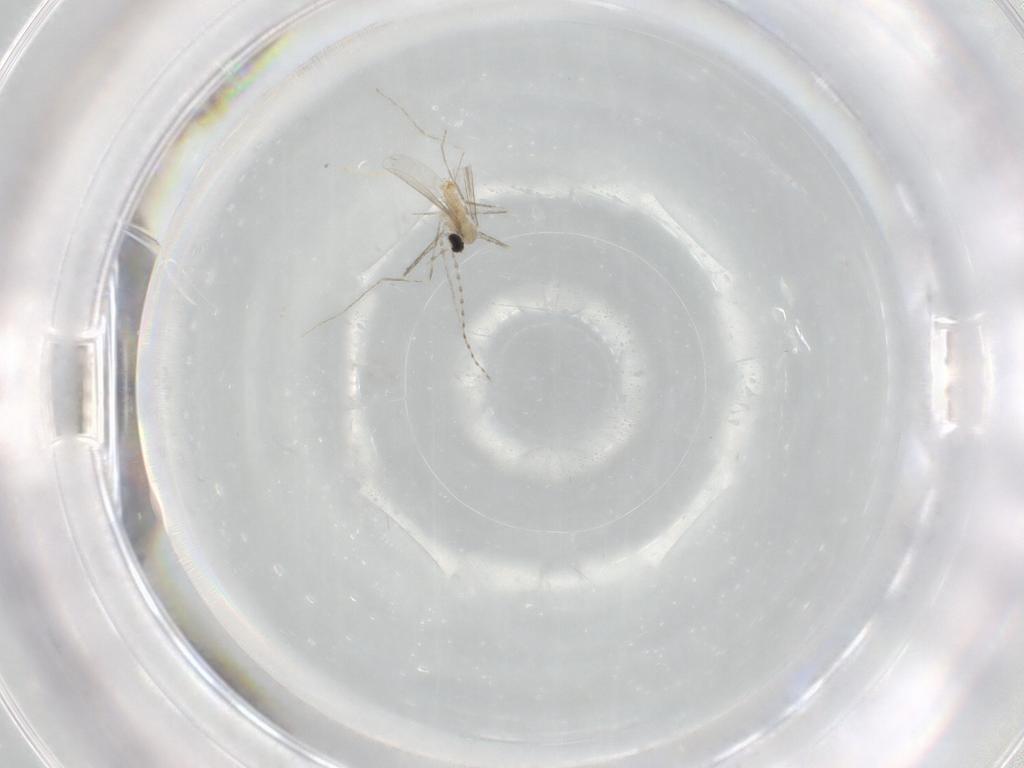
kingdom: Animalia
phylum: Arthropoda
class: Insecta
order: Diptera
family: Cecidomyiidae
